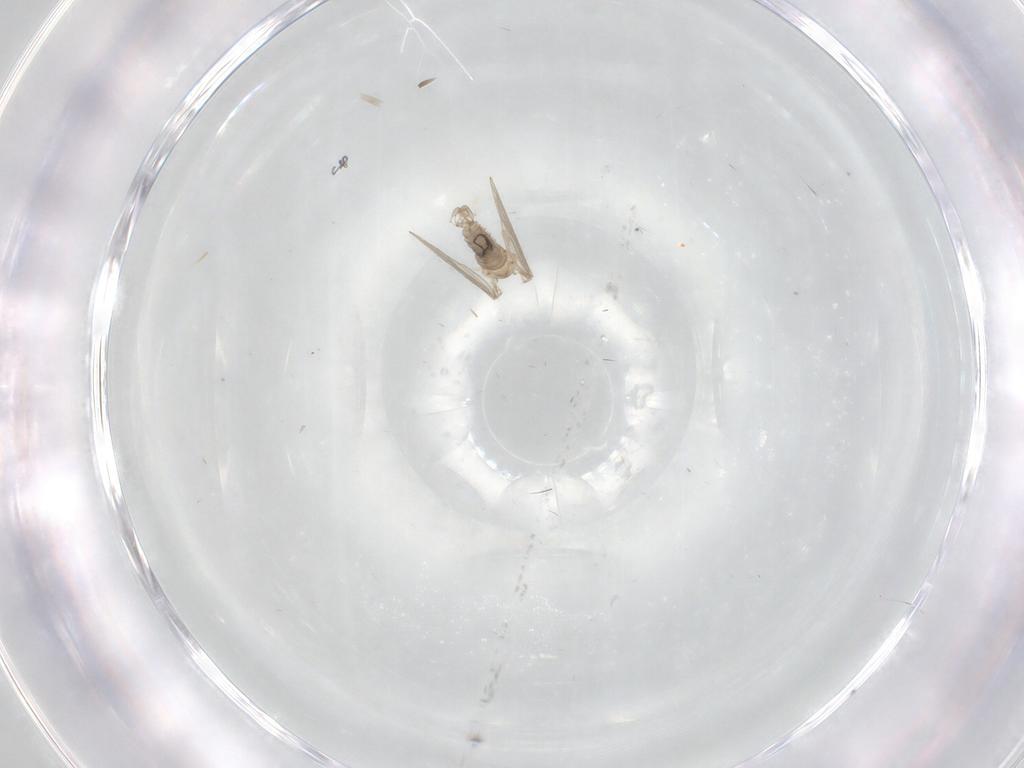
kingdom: Animalia
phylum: Arthropoda
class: Insecta
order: Diptera
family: Psychodidae
